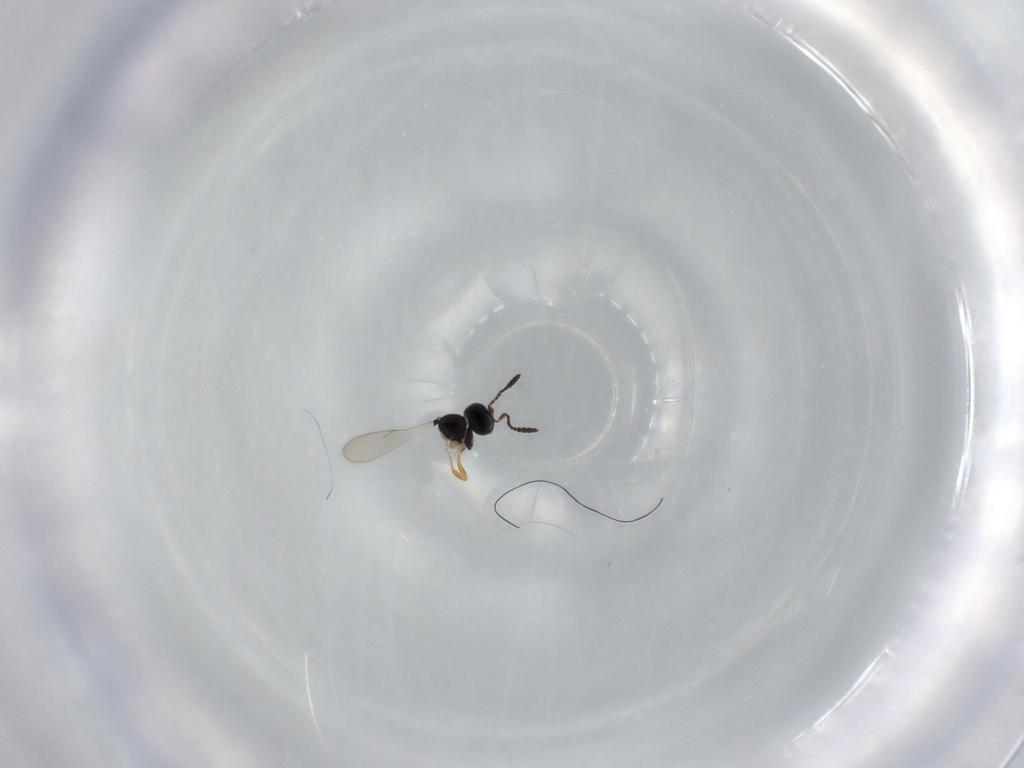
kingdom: Animalia
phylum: Arthropoda
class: Insecta
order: Hymenoptera
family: Scelionidae
